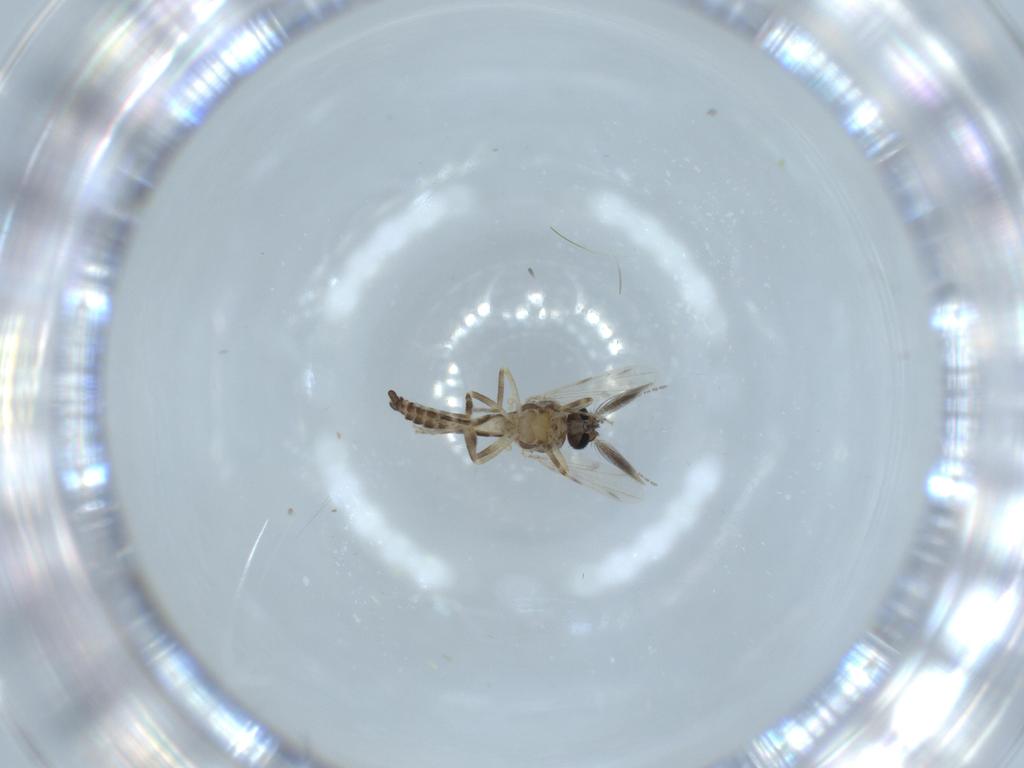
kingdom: Animalia
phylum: Arthropoda
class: Insecta
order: Diptera
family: Ceratopogonidae
